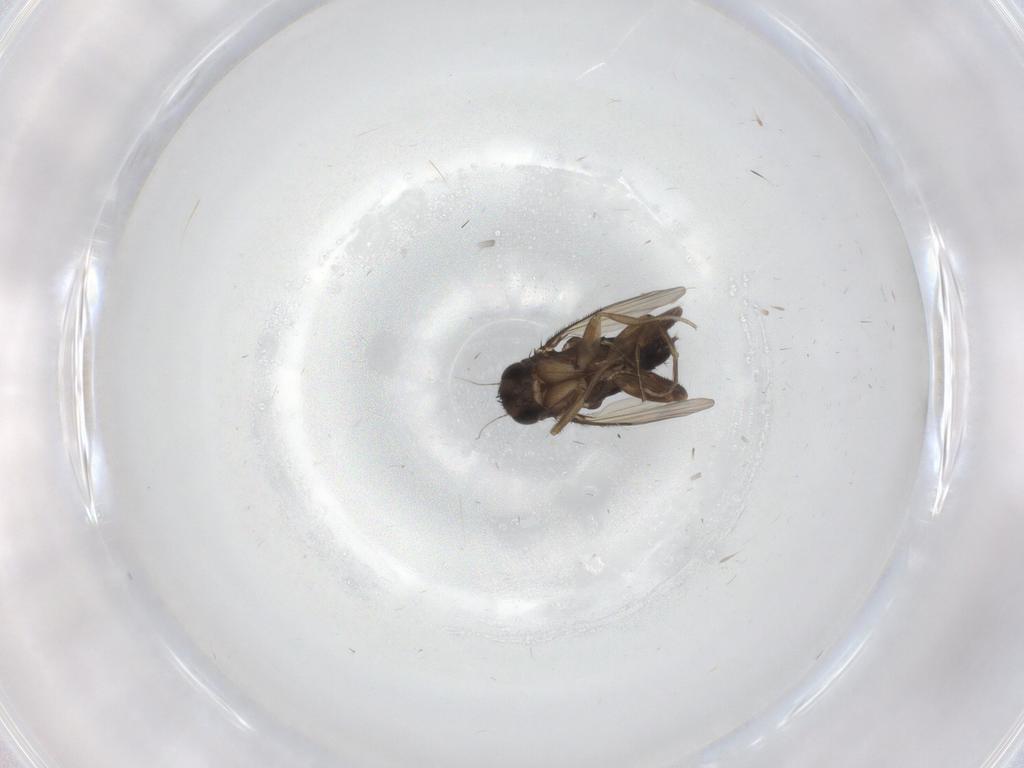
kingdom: Animalia
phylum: Arthropoda
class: Insecta
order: Diptera
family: Phoridae
